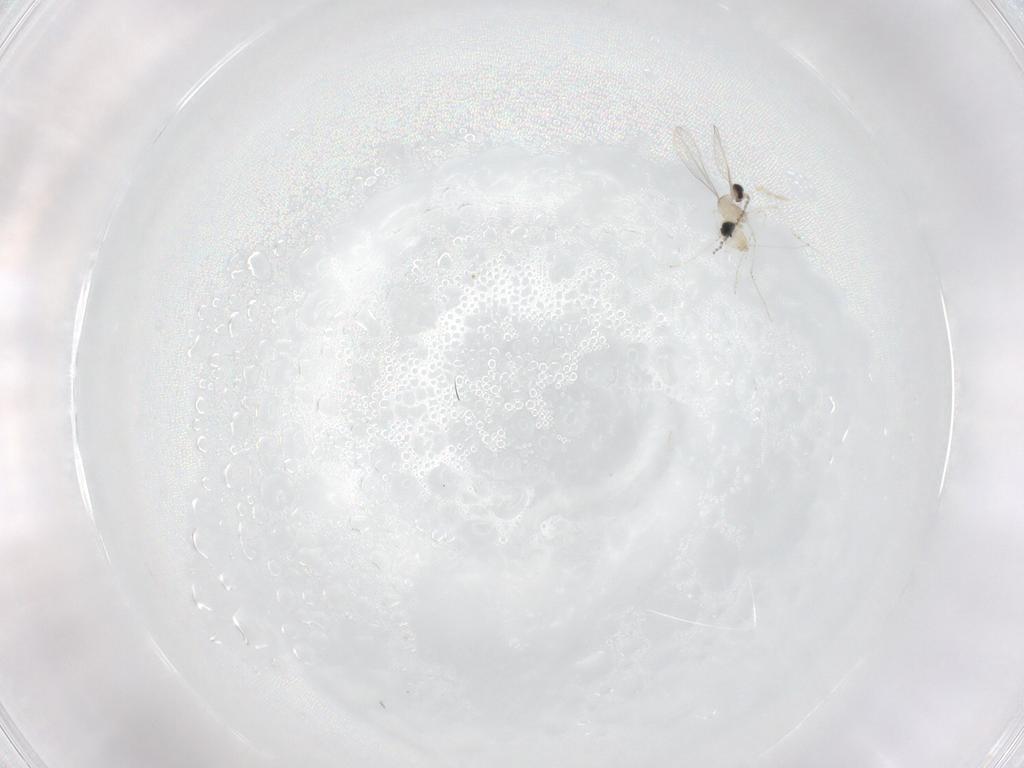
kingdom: Animalia
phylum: Arthropoda
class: Insecta
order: Diptera
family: Cecidomyiidae
